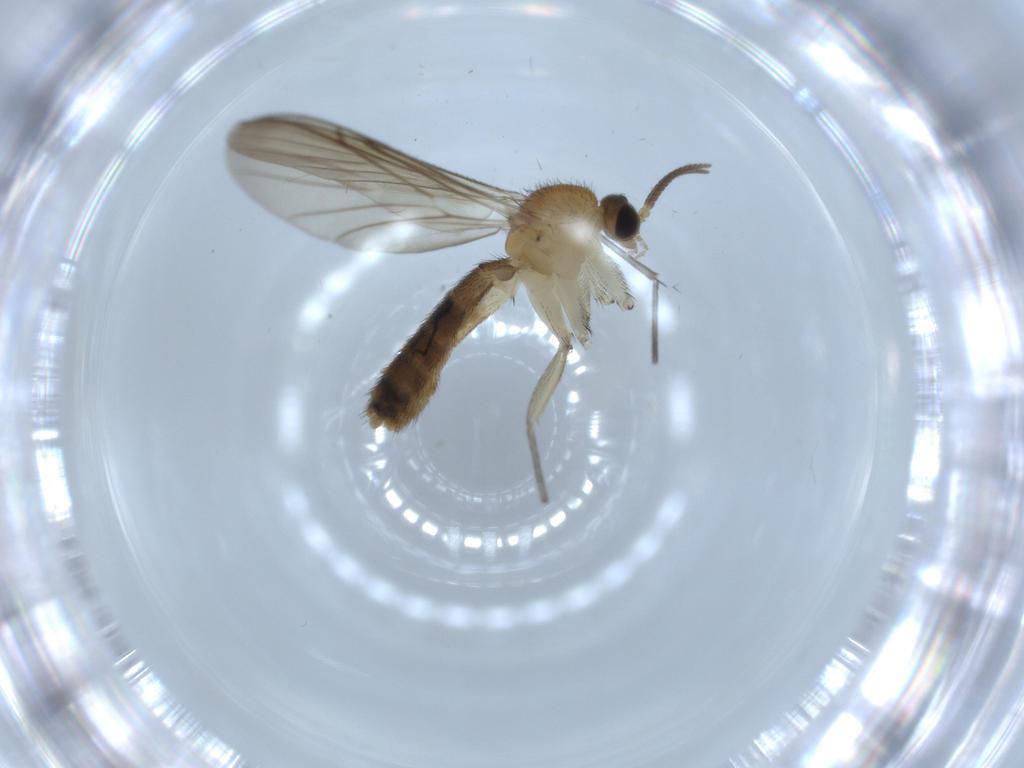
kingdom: Animalia
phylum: Arthropoda
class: Insecta
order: Diptera
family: Keroplatidae
